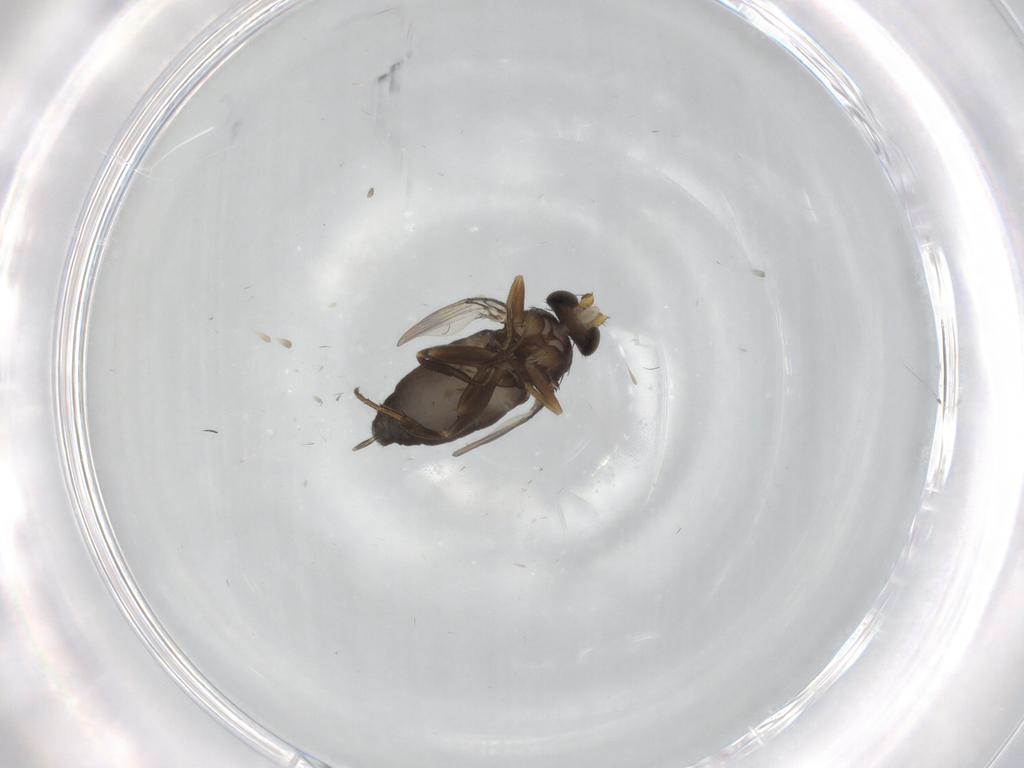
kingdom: Animalia
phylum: Arthropoda
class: Insecta
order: Diptera
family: Phoridae
